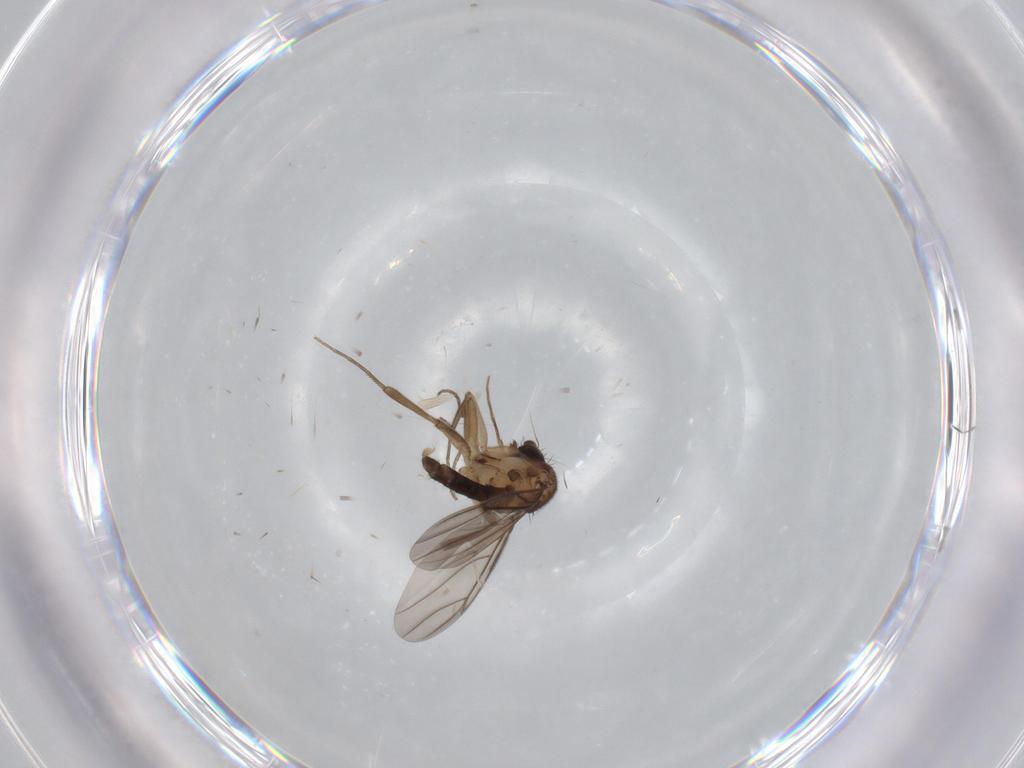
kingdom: Animalia
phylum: Arthropoda
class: Insecta
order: Diptera
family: Phoridae
